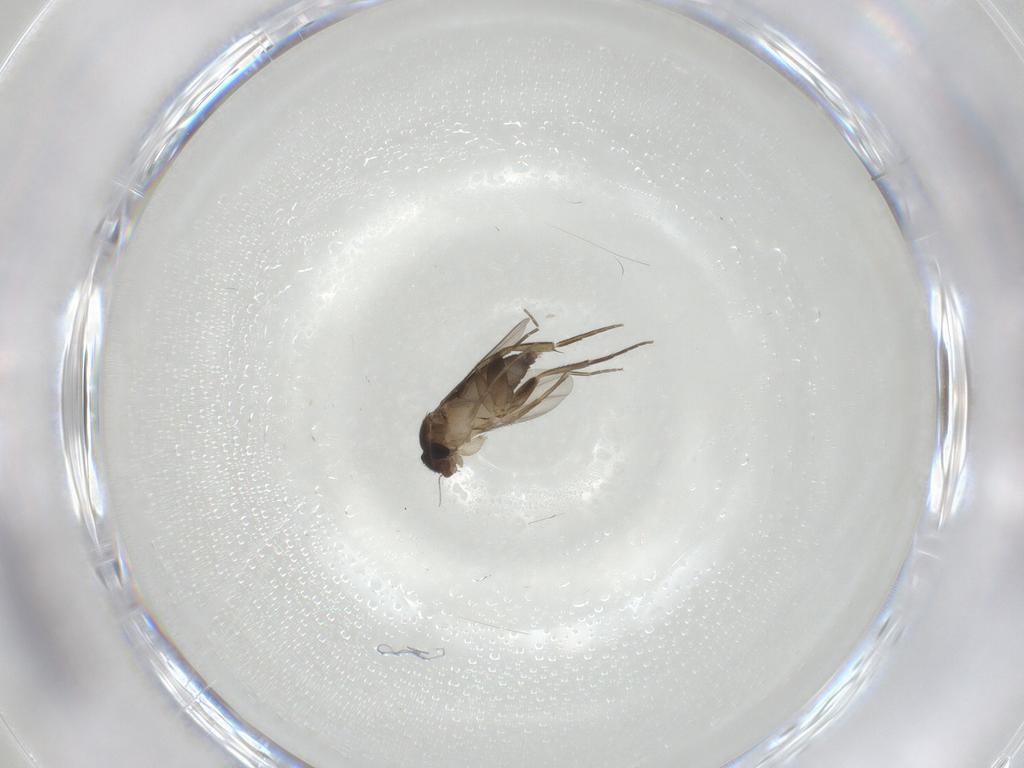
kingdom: Animalia
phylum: Arthropoda
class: Insecta
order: Diptera
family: Phoridae
